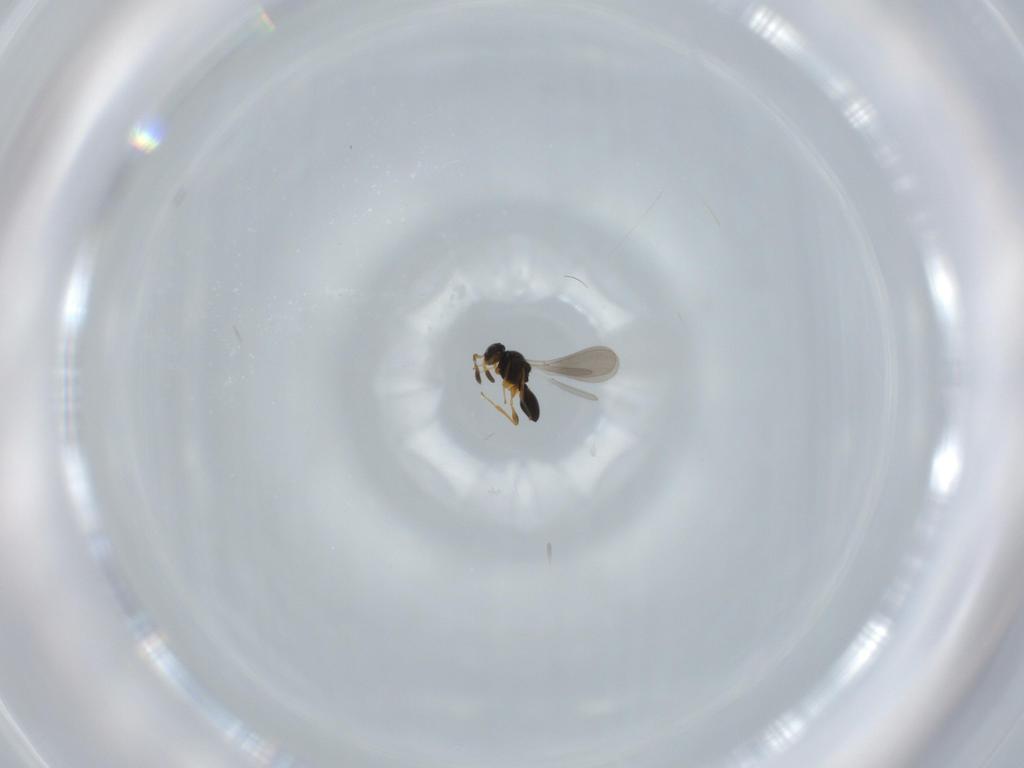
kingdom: Animalia
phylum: Arthropoda
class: Insecta
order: Hymenoptera
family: Platygastridae
